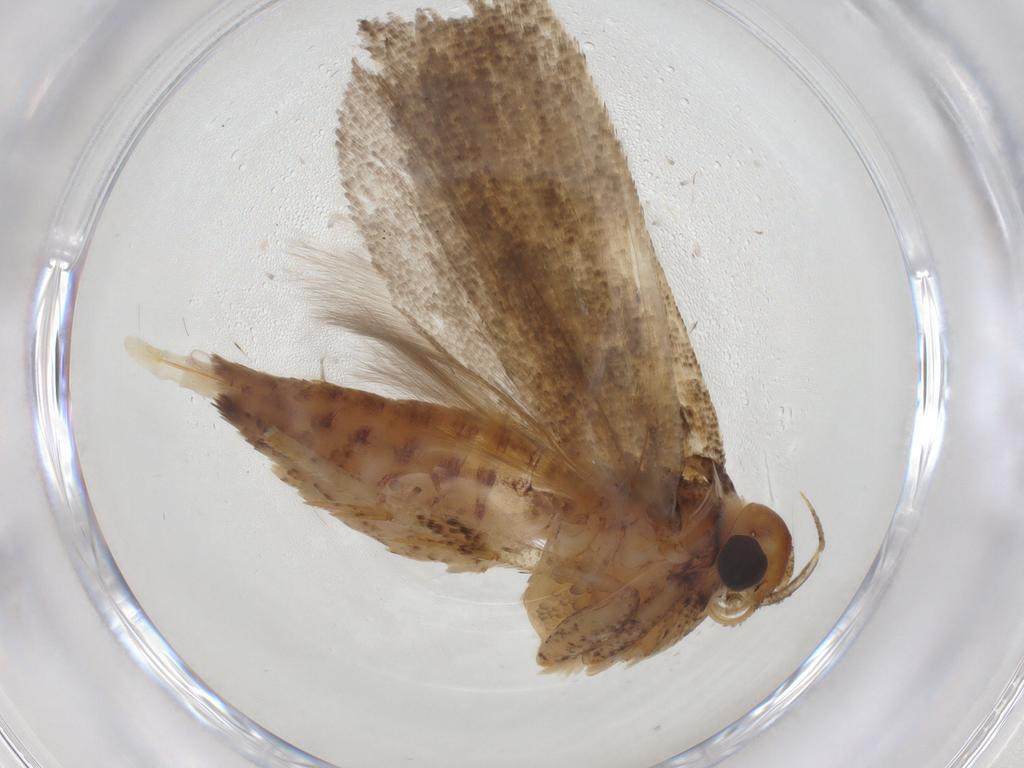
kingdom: Animalia
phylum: Arthropoda
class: Insecta
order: Lepidoptera
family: Gelechiidae
